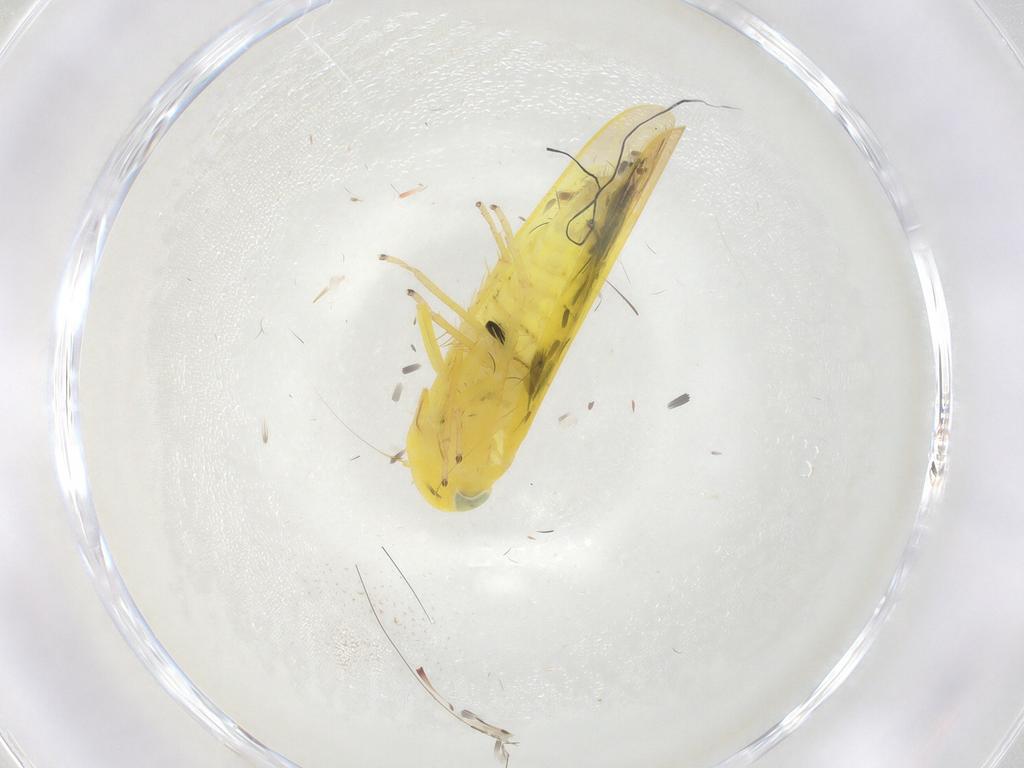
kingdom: Animalia
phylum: Arthropoda
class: Insecta
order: Hemiptera
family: Cicadellidae
